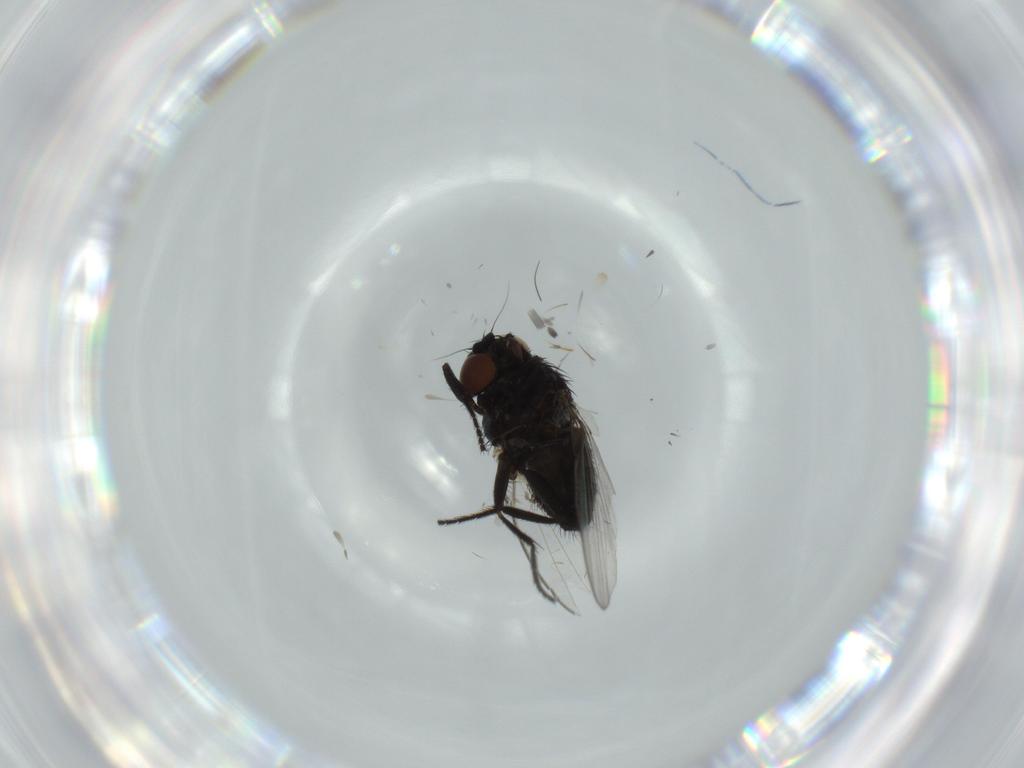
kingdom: Animalia
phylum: Arthropoda
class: Insecta
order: Diptera
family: Milichiidae
